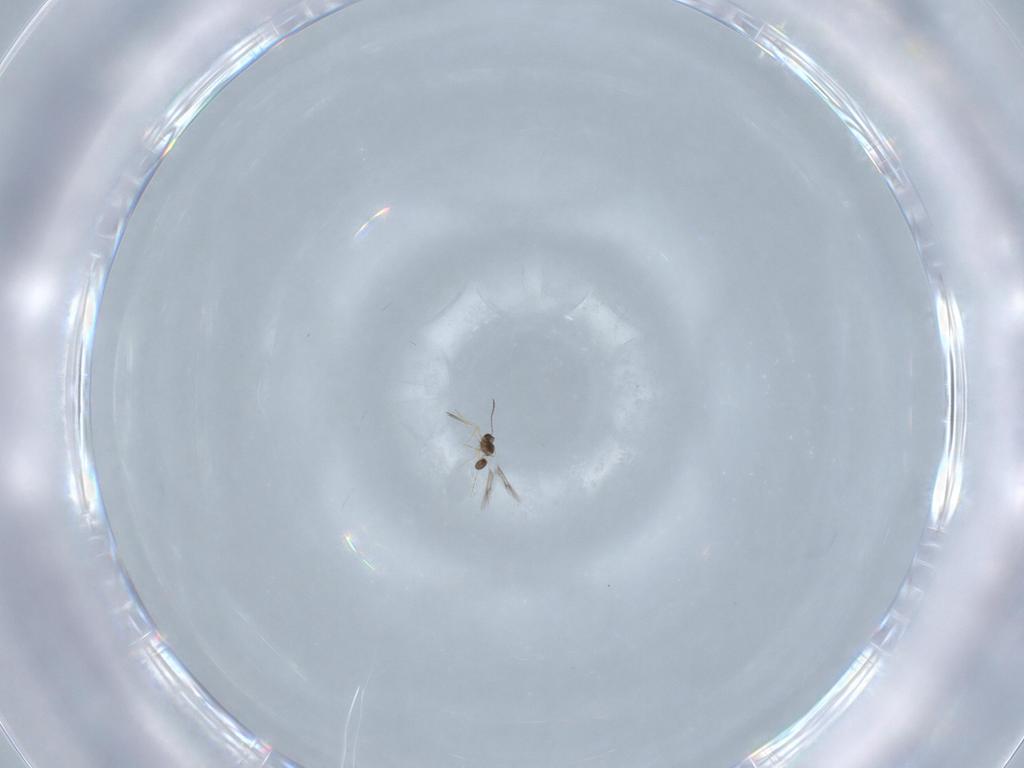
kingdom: Animalia
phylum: Arthropoda
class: Insecta
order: Hymenoptera
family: Mymarommatidae
